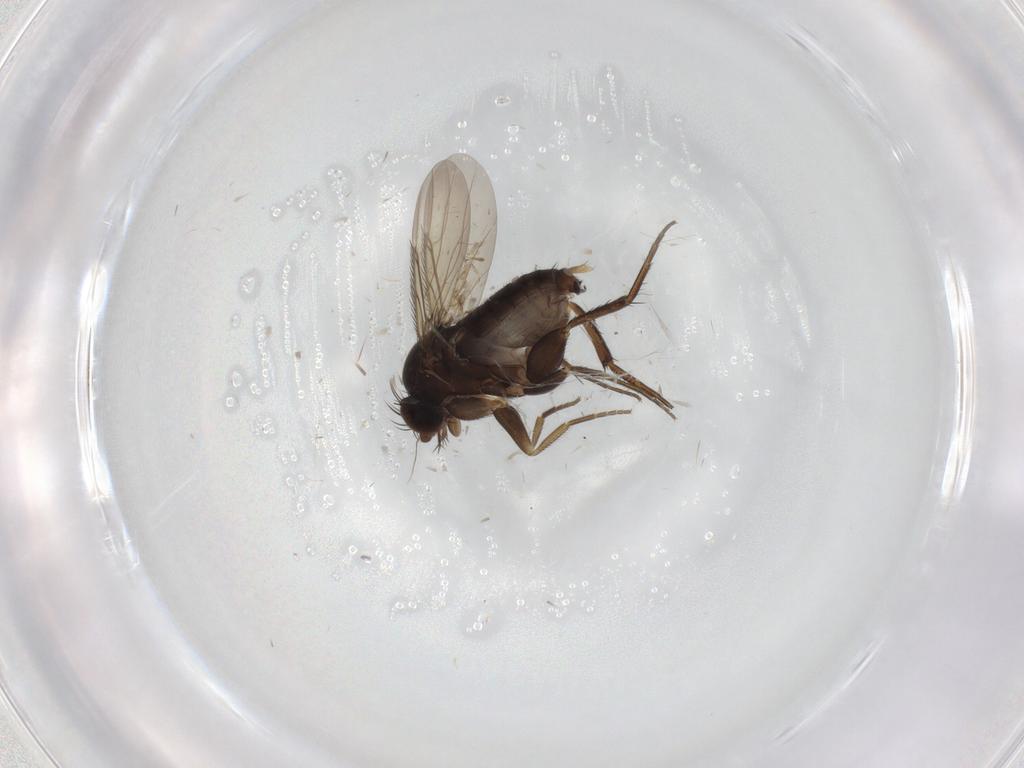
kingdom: Animalia
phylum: Arthropoda
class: Insecta
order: Diptera
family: Phoridae
